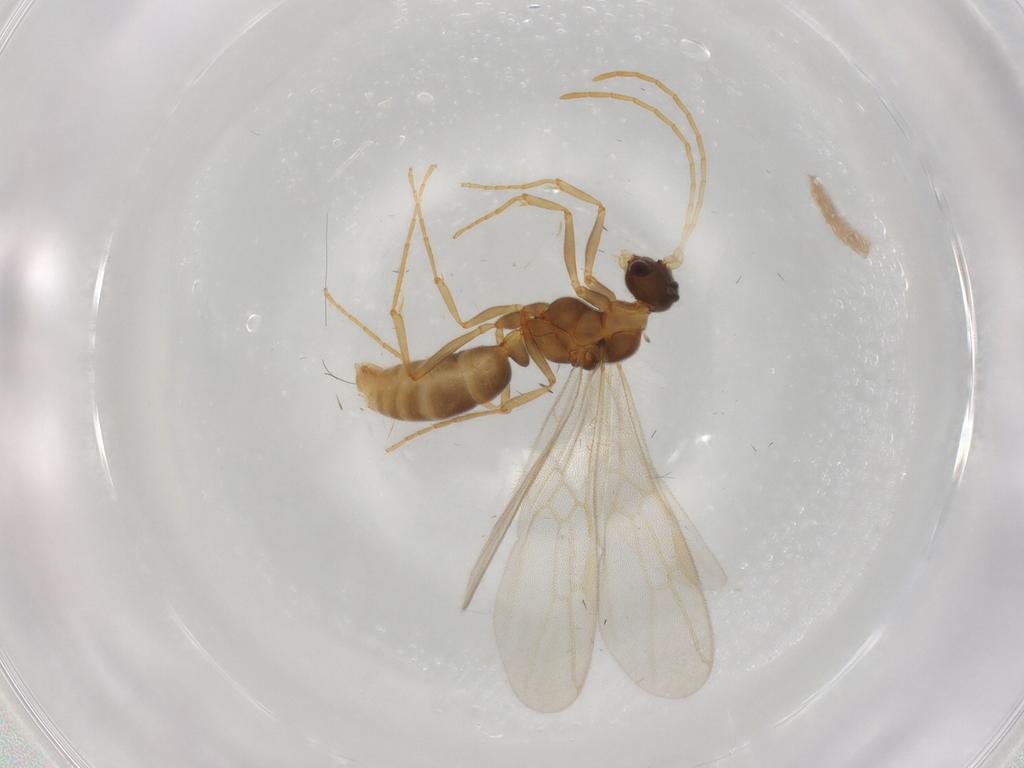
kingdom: Animalia
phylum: Arthropoda
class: Insecta
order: Hymenoptera
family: Formicidae
